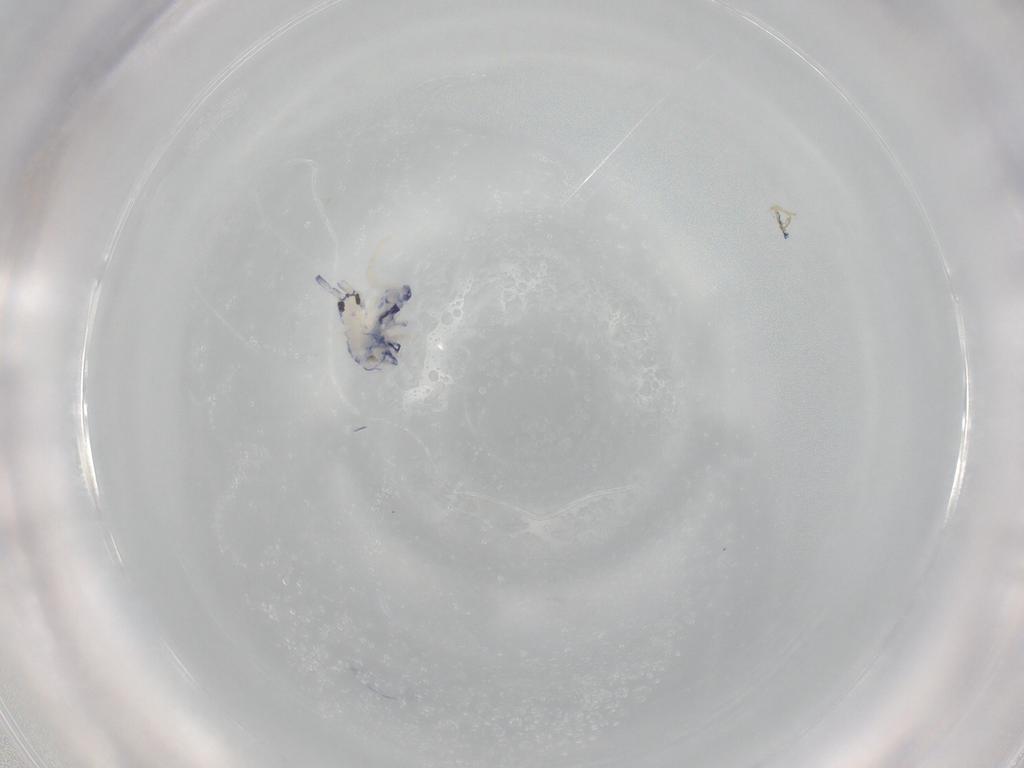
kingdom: Animalia
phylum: Arthropoda
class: Collembola
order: Entomobryomorpha
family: Entomobryidae
